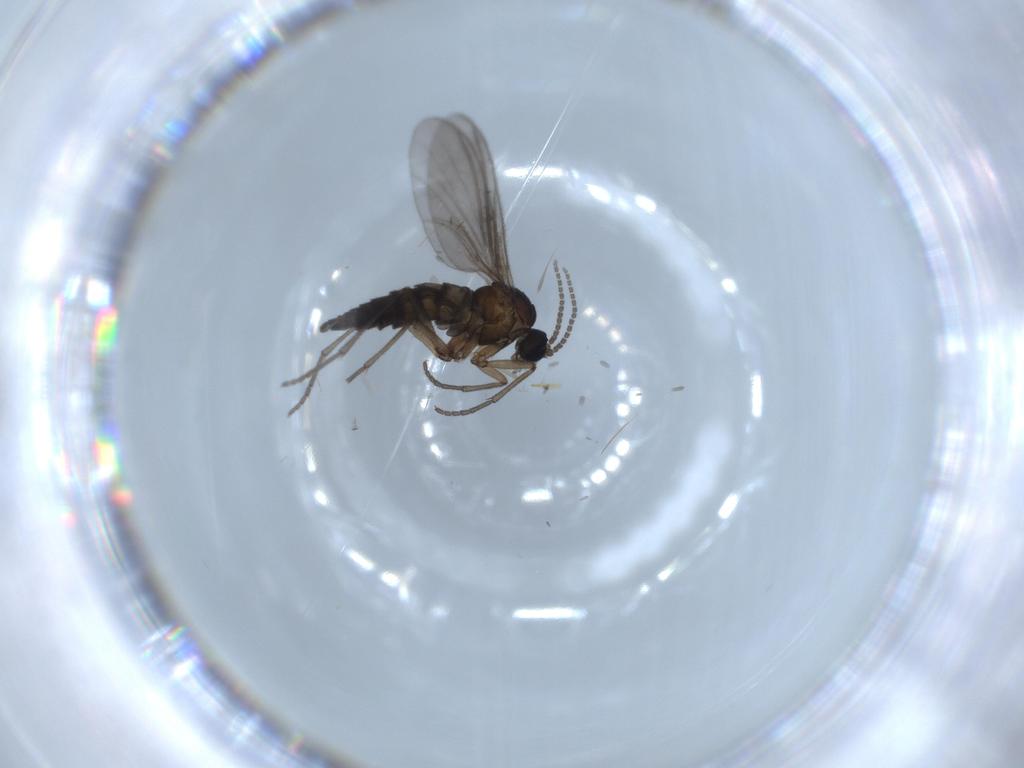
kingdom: Animalia
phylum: Arthropoda
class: Insecta
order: Diptera
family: Sciaridae
